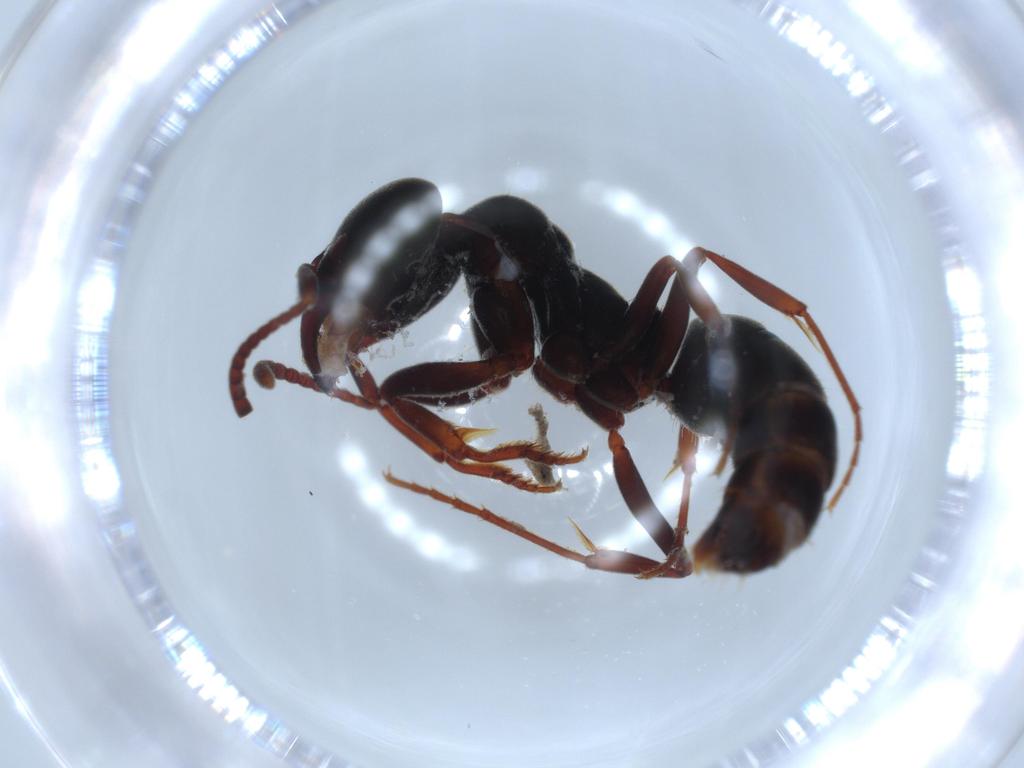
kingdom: Animalia
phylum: Arthropoda
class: Insecta
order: Hymenoptera
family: Formicidae
